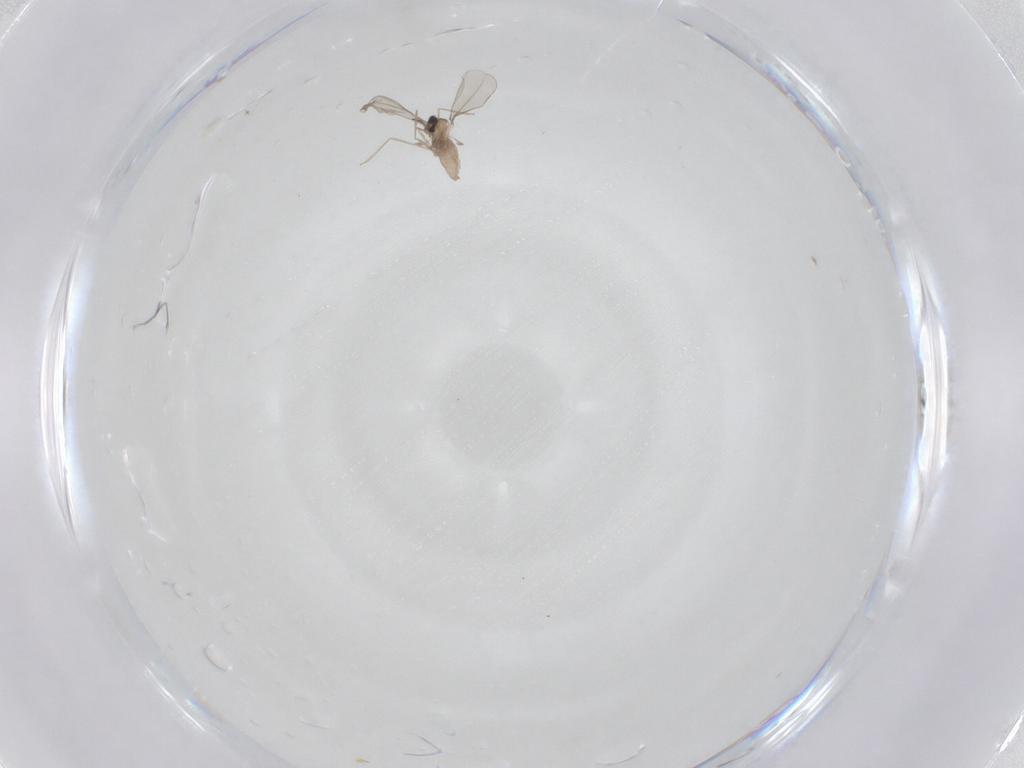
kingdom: Animalia
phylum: Arthropoda
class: Insecta
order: Diptera
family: Cecidomyiidae
